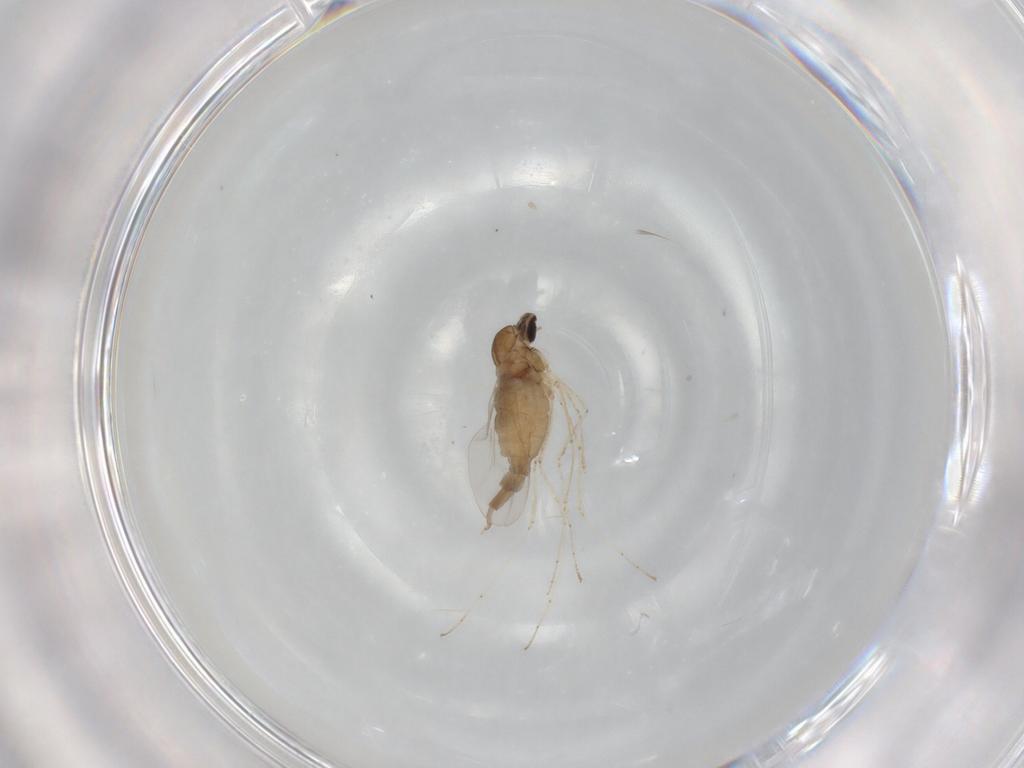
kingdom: Animalia
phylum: Arthropoda
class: Insecta
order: Diptera
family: Cecidomyiidae
